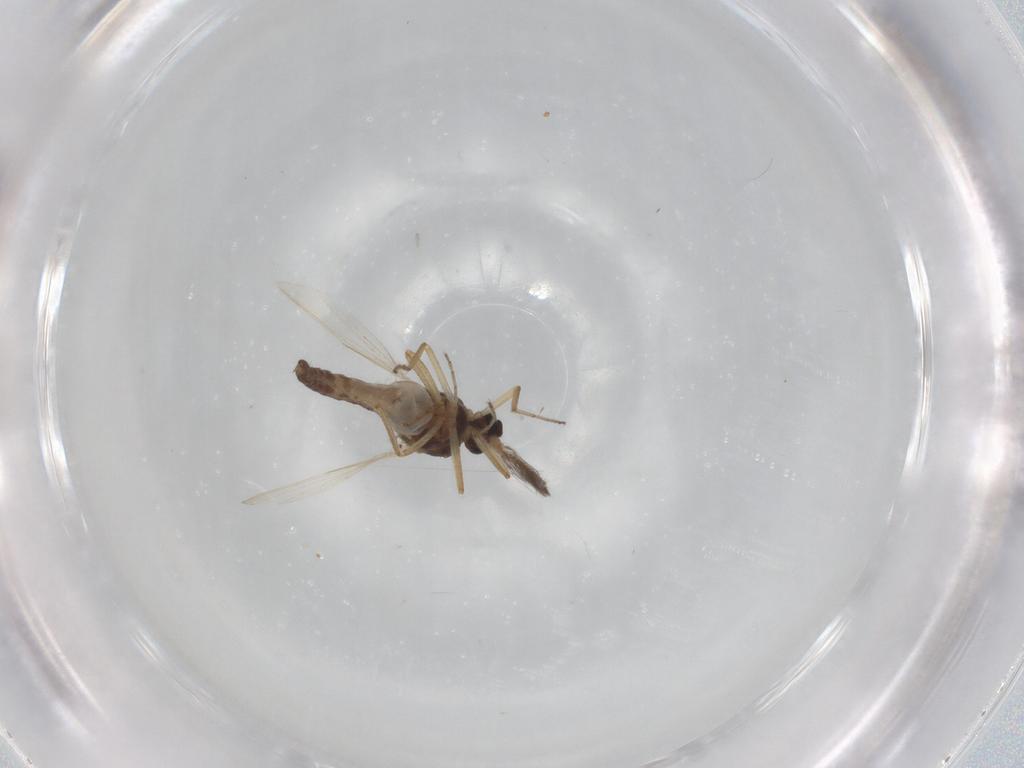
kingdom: Animalia
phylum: Arthropoda
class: Insecta
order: Diptera
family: Ceratopogonidae
